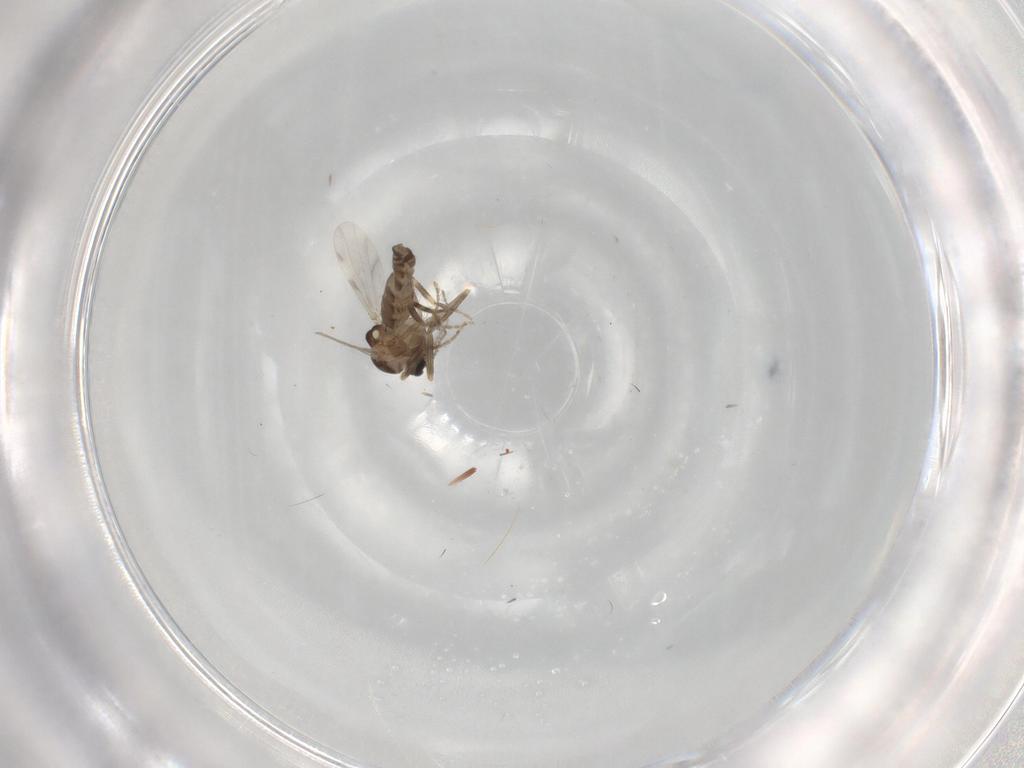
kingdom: Animalia
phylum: Arthropoda
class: Insecta
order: Diptera
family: Ceratopogonidae
